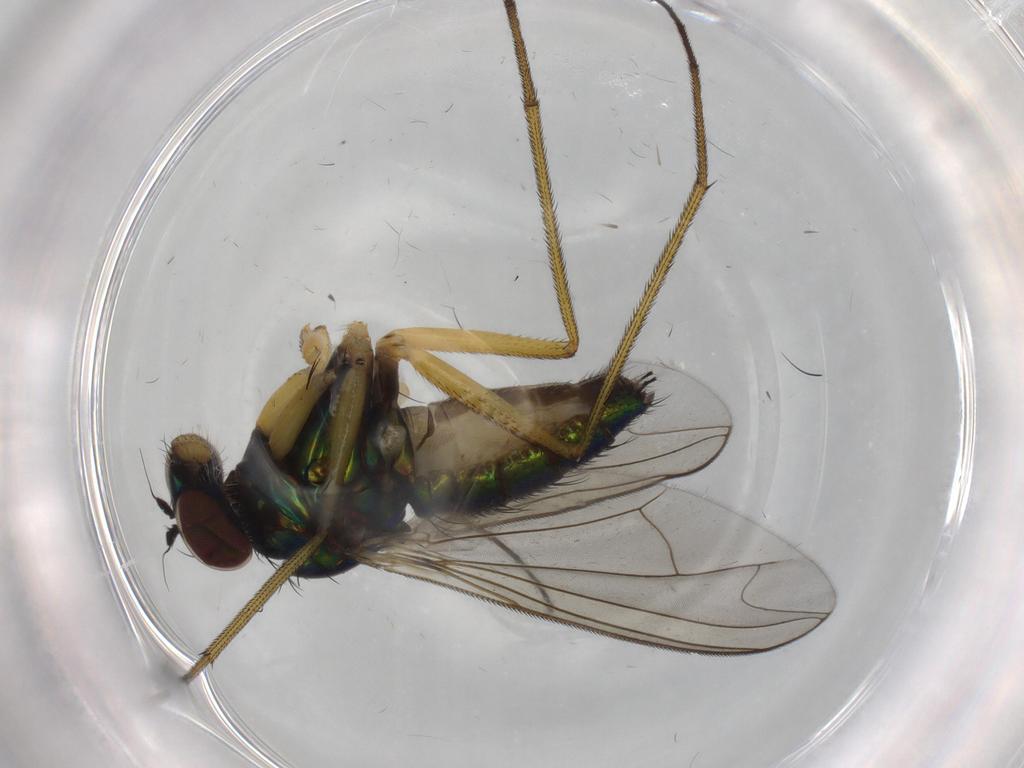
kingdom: Animalia
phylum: Arthropoda
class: Insecta
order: Diptera
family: Dolichopodidae
